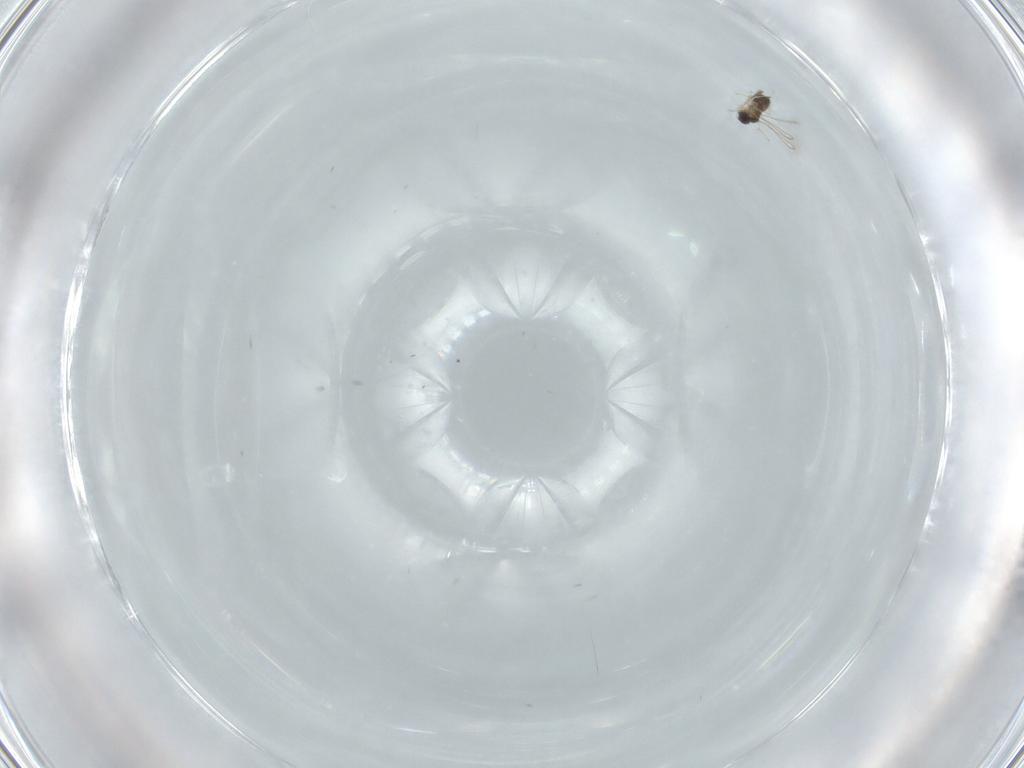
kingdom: Animalia
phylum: Arthropoda
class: Insecta
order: Hymenoptera
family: Mymaridae
